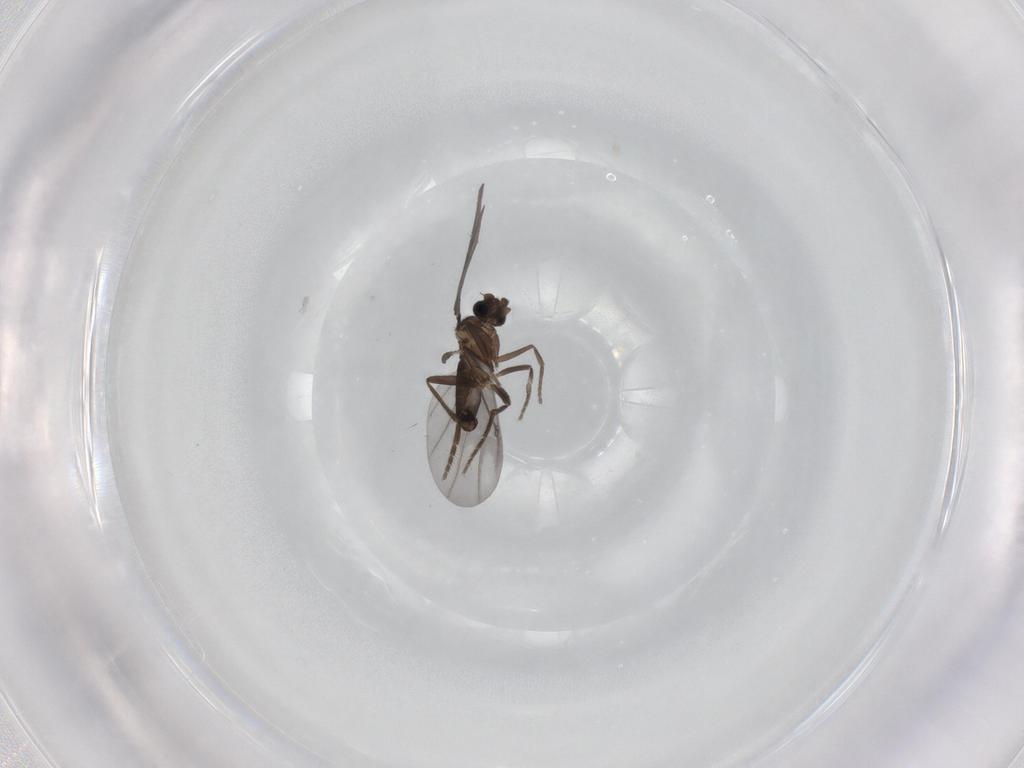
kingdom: Animalia
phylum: Arthropoda
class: Insecta
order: Diptera
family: Phoridae
